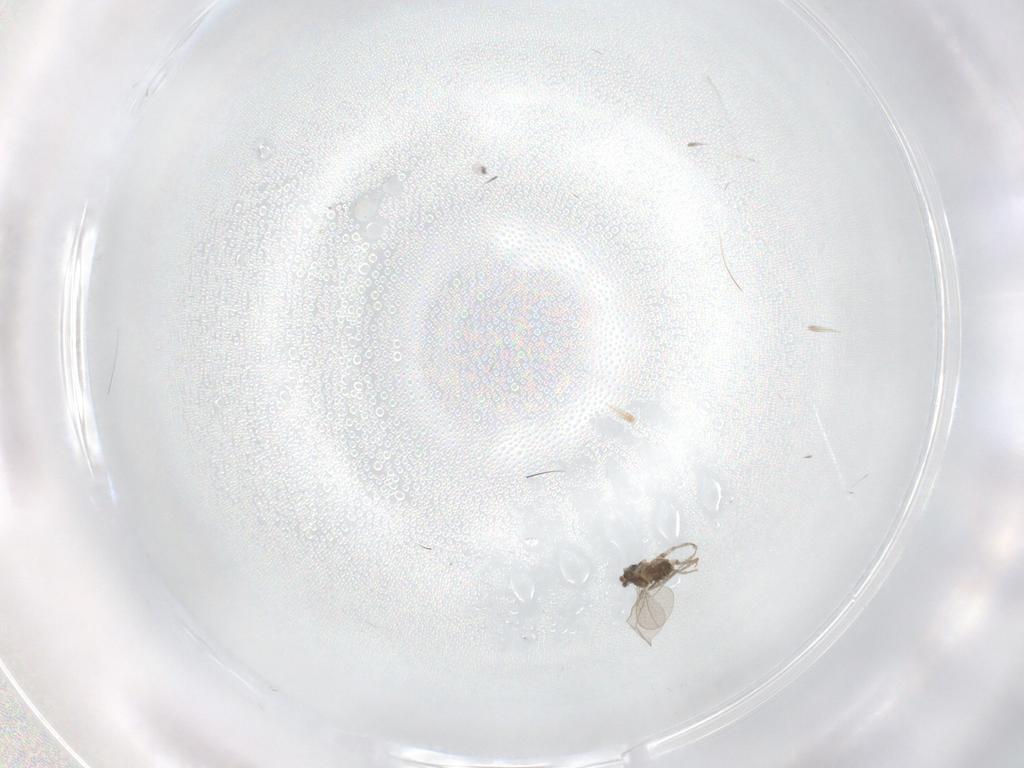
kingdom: Animalia
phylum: Arthropoda
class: Insecta
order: Diptera
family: Cecidomyiidae
